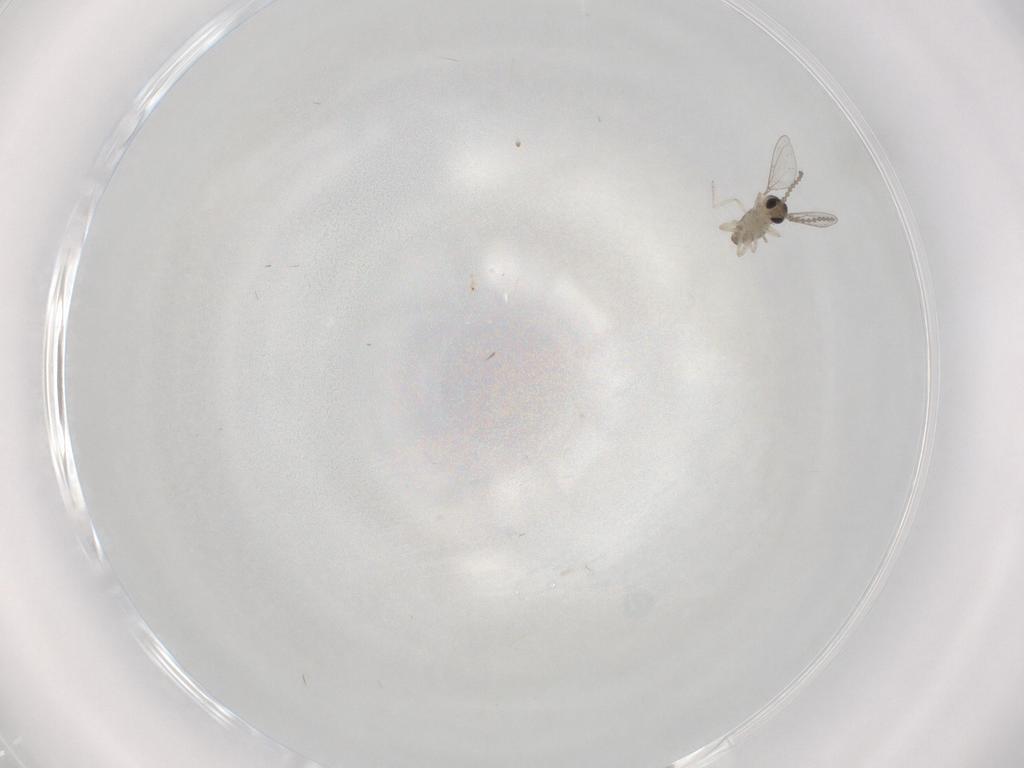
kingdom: Animalia
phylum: Arthropoda
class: Insecta
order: Diptera
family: Cecidomyiidae
